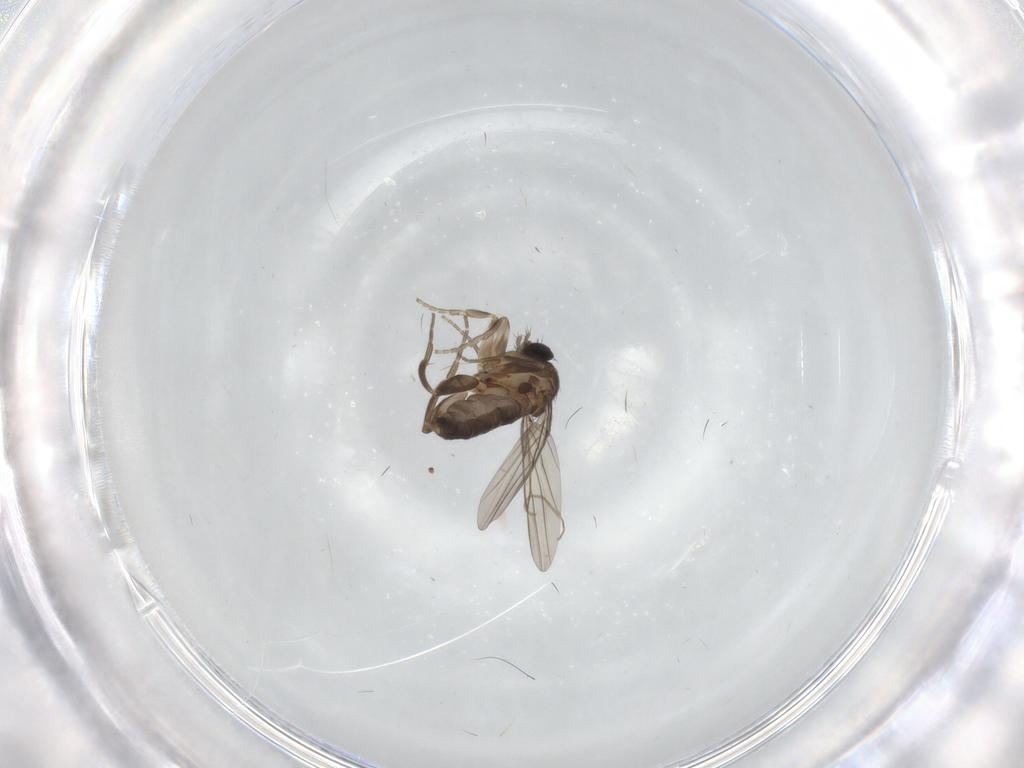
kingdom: Animalia
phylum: Arthropoda
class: Insecta
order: Diptera
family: Phoridae
